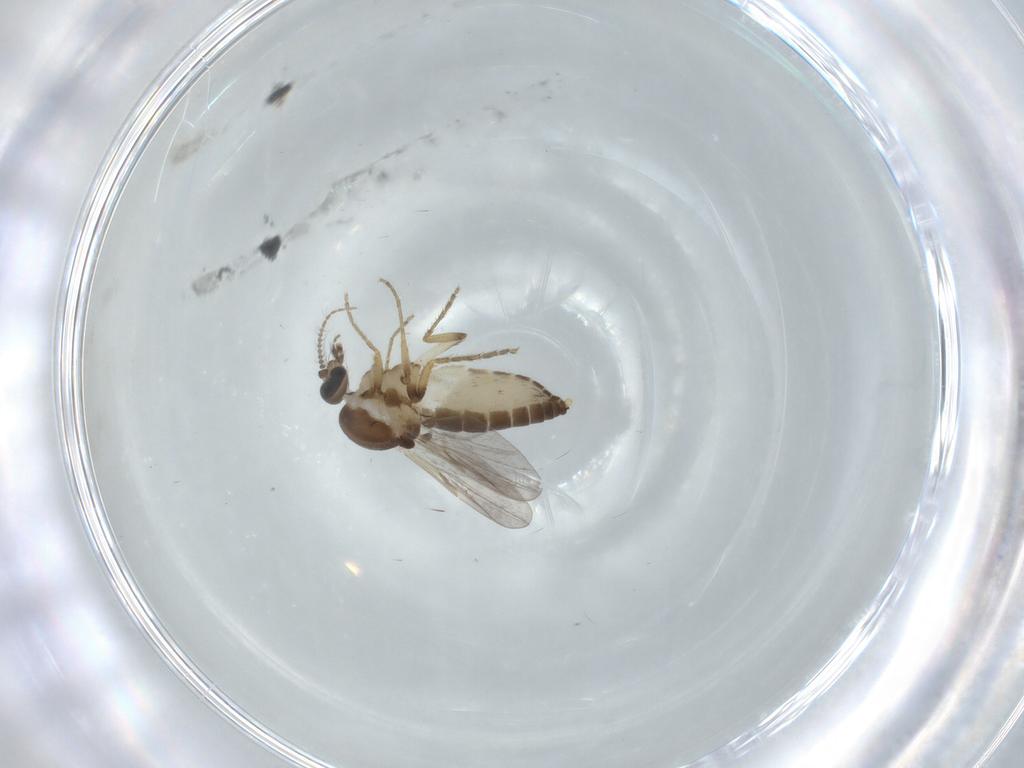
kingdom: Animalia
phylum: Arthropoda
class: Insecta
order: Diptera
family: Ceratopogonidae
